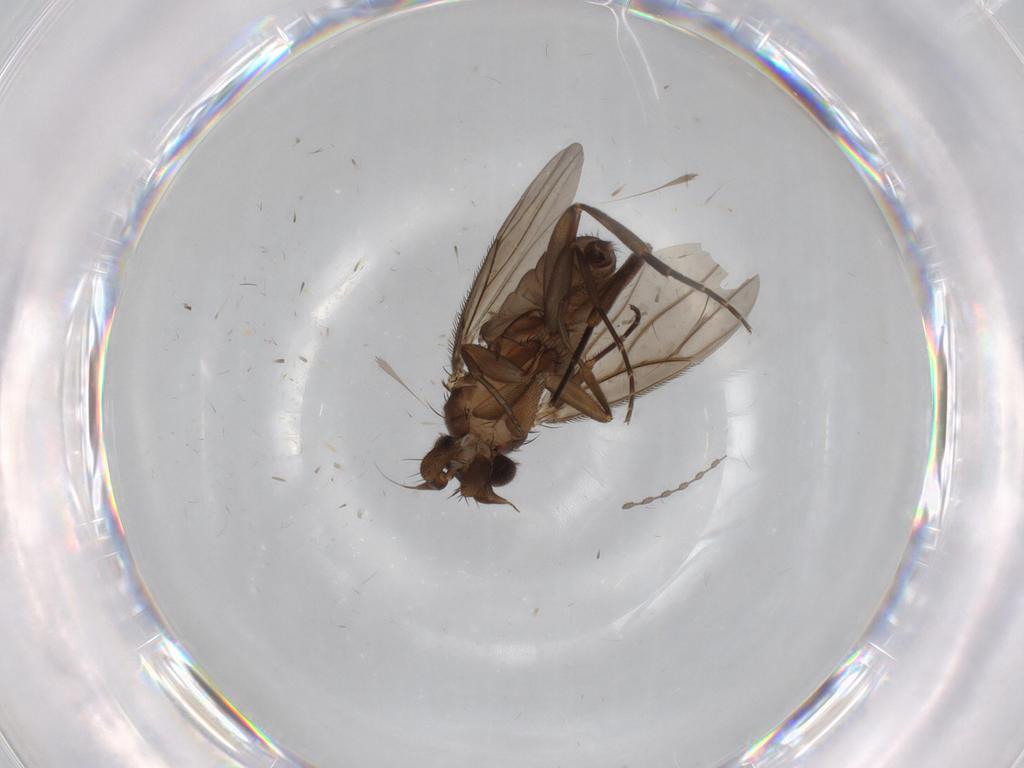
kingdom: Animalia
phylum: Arthropoda
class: Insecta
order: Diptera
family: Phoridae
